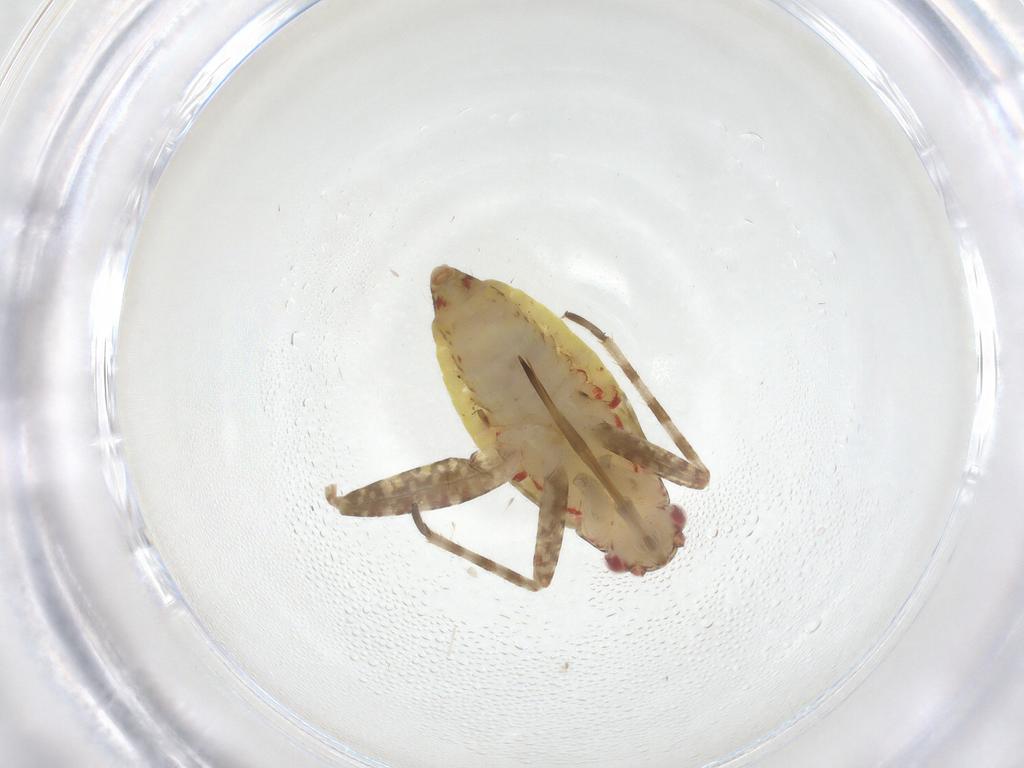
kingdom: Animalia
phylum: Arthropoda
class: Insecta
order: Hemiptera
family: Miridae
